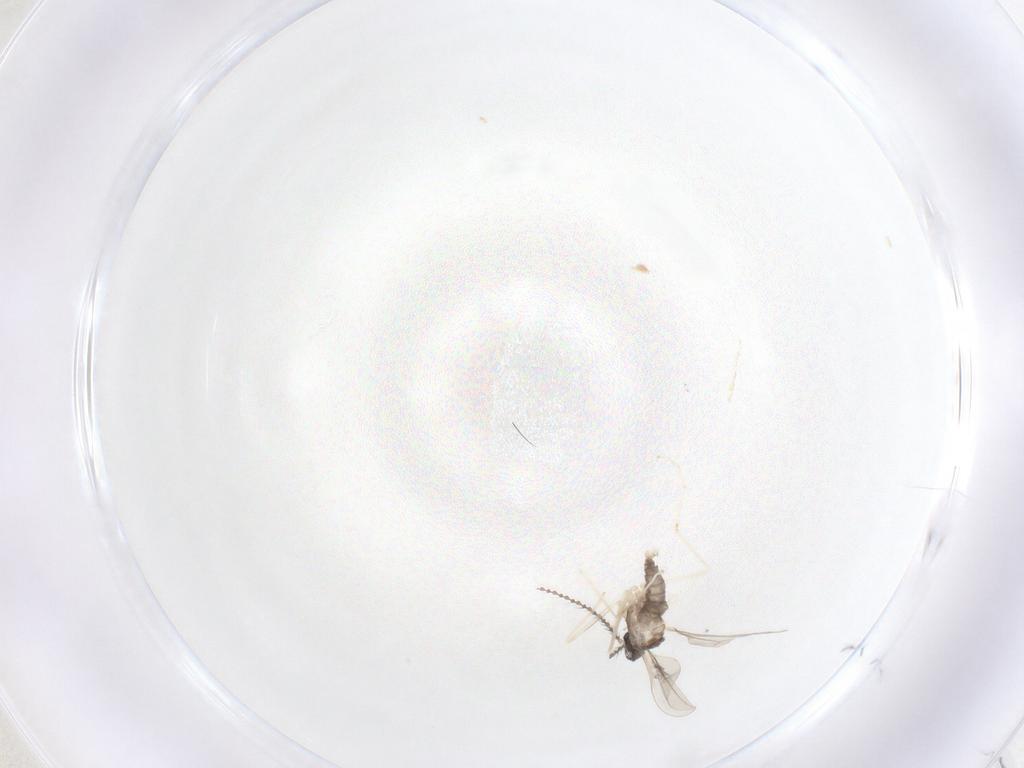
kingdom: Animalia
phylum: Arthropoda
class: Insecta
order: Diptera
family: Cecidomyiidae
